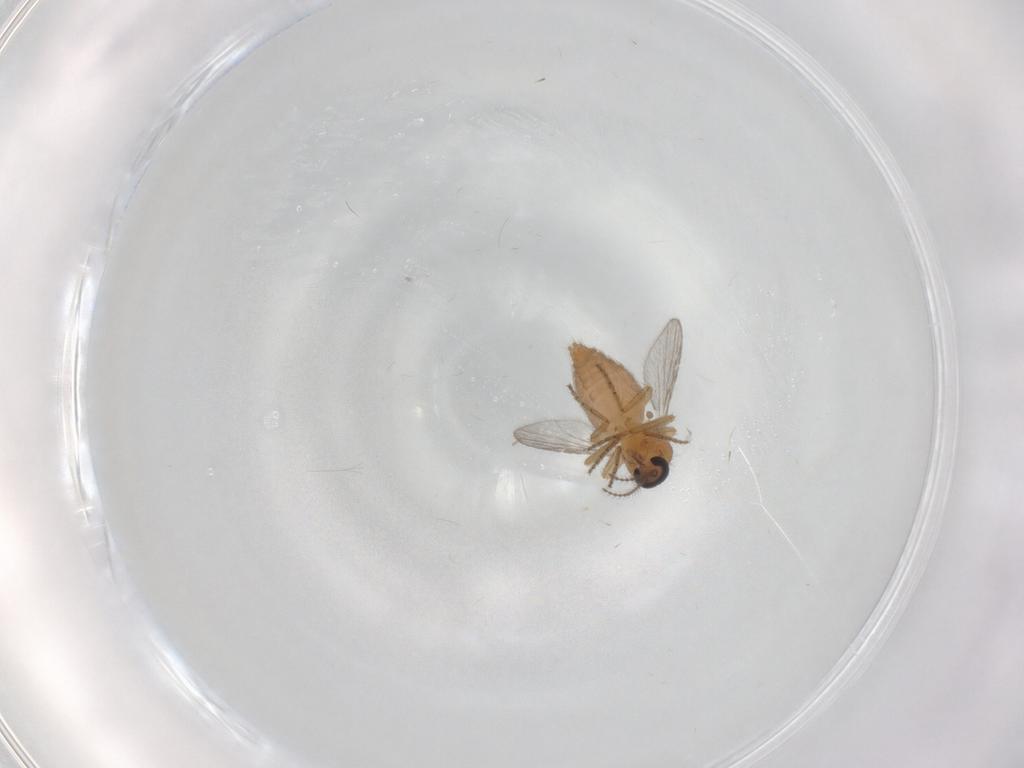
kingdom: Animalia
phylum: Arthropoda
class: Insecta
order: Diptera
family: Ceratopogonidae
